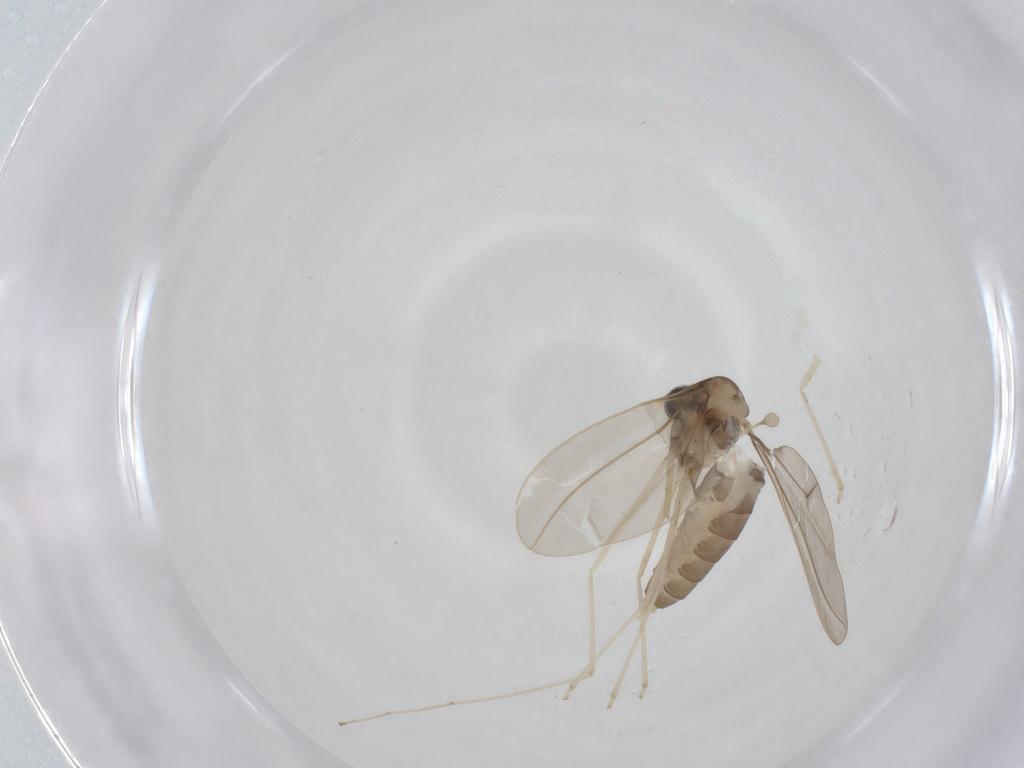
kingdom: Animalia
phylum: Arthropoda
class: Insecta
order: Diptera
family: Cecidomyiidae
